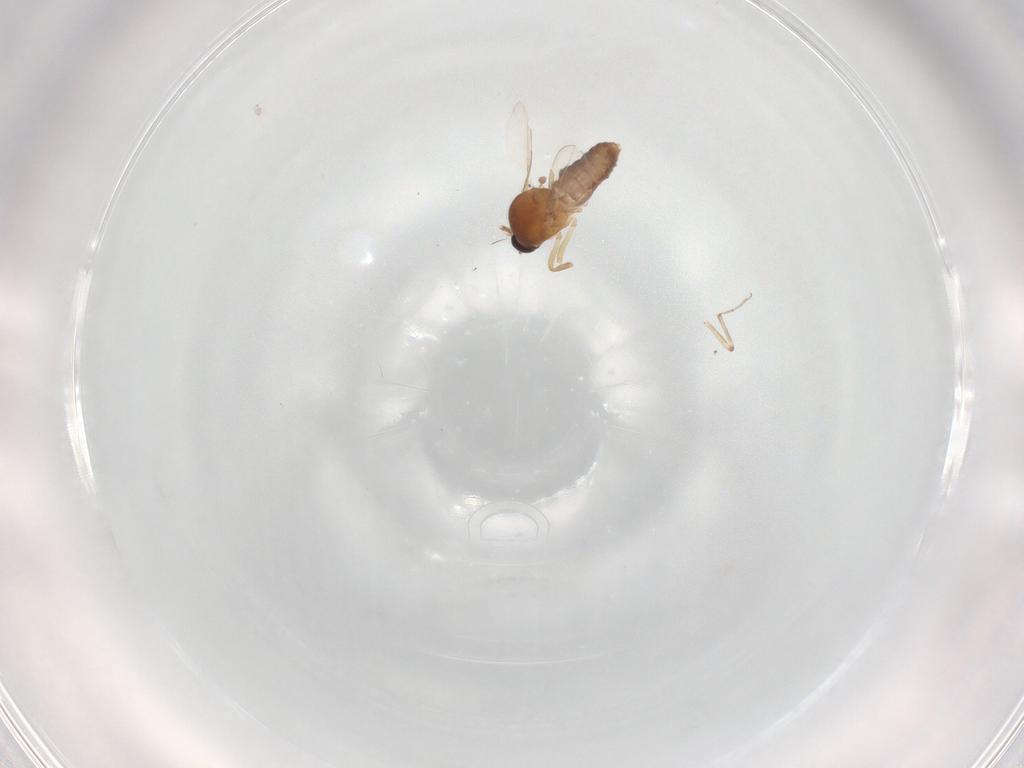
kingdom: Animalia
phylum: Arthropoda
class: Insecta
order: Diptera
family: Ceratopogonidae
